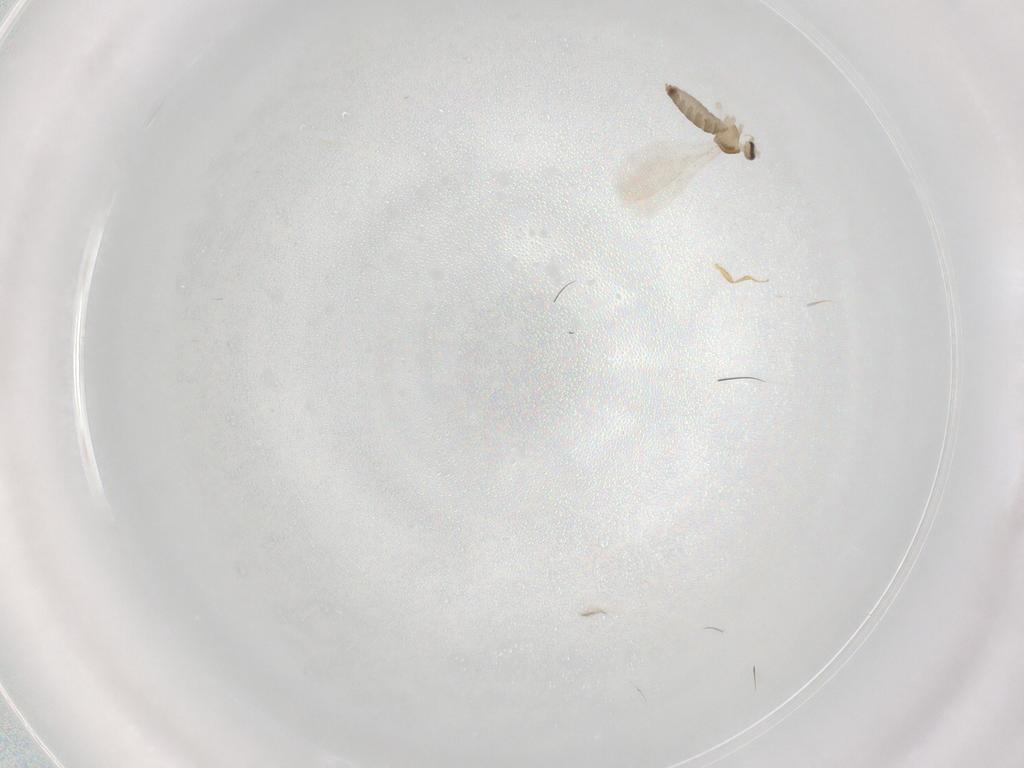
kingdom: Animalia
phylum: Arthropoda
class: Insecta
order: Diptera
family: Cecidomyiidae
